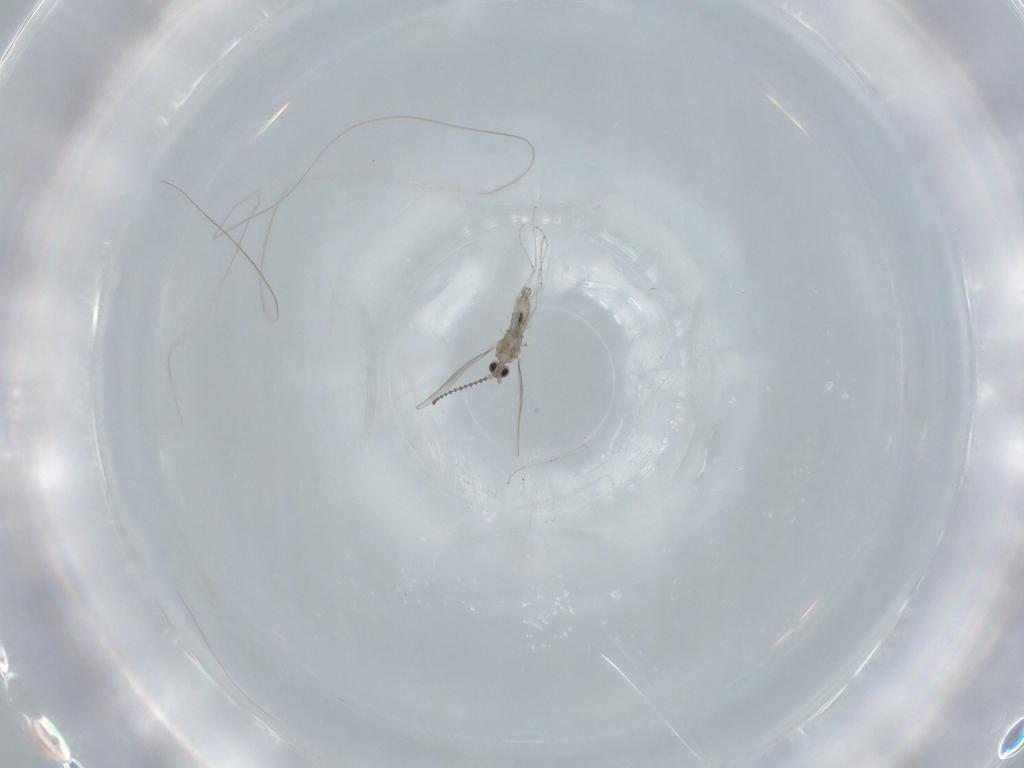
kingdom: Animalia
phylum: Arthropoda
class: Insecta
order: Diptera
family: Cecidomyiidae
